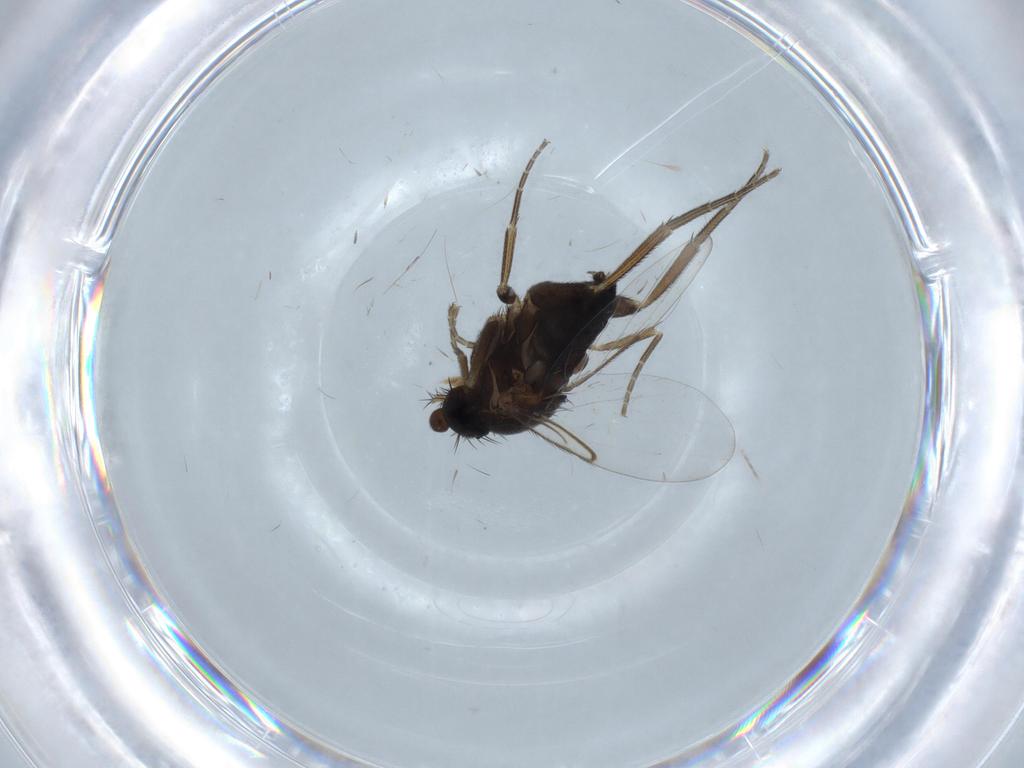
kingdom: Animalia
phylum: Arthropoda
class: Insecta
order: Diptera
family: Phoridae
